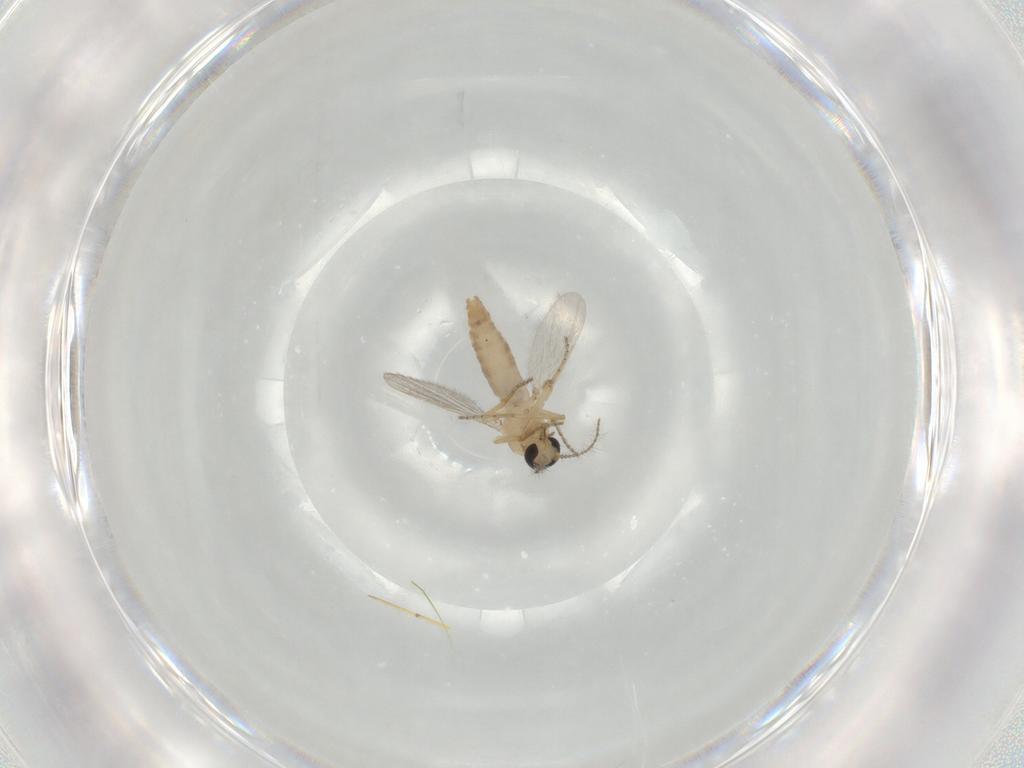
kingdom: Animalia
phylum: Arthropoda
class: Insecta
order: Diptera
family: Ceratopogonidae
